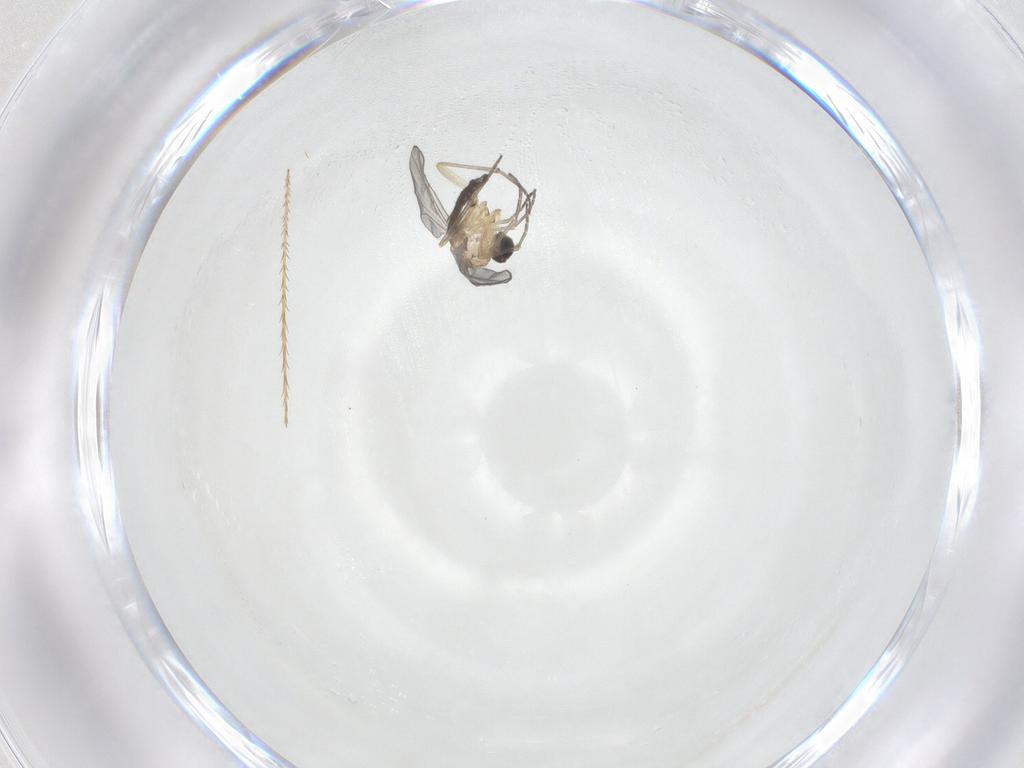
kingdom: Animalia
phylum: Arthropoda
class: Insecta
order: Diptera
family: Sciaridae
